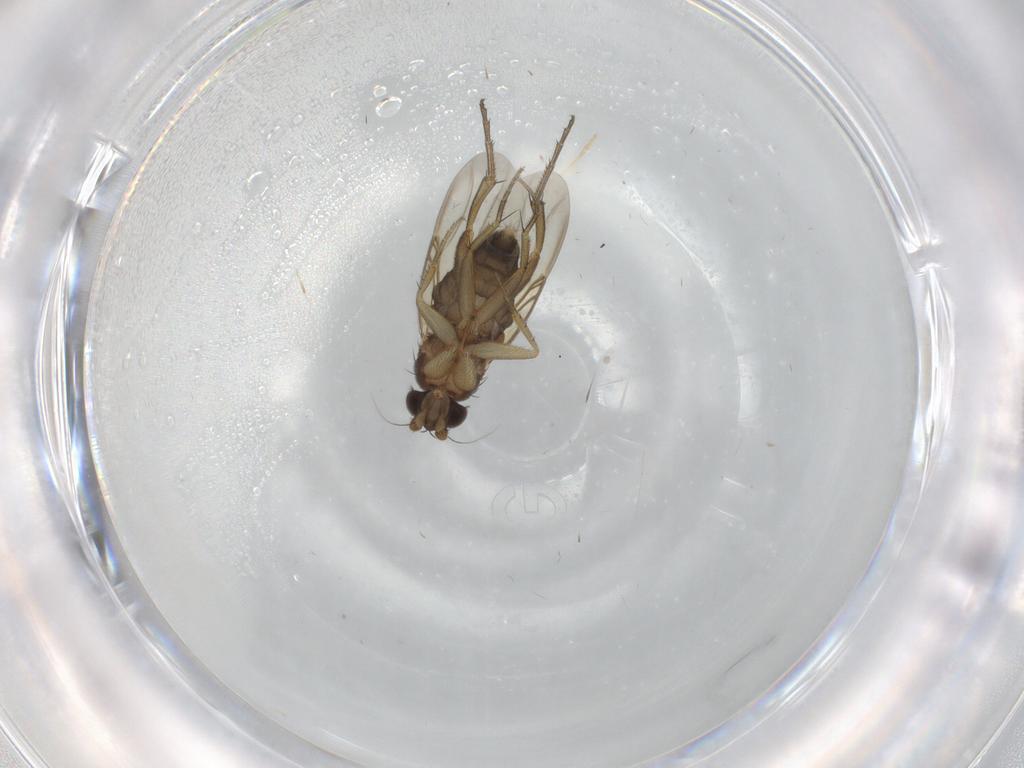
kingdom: Animalia
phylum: Arthropoda
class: Insecta
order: Diptera
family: Phoridae
